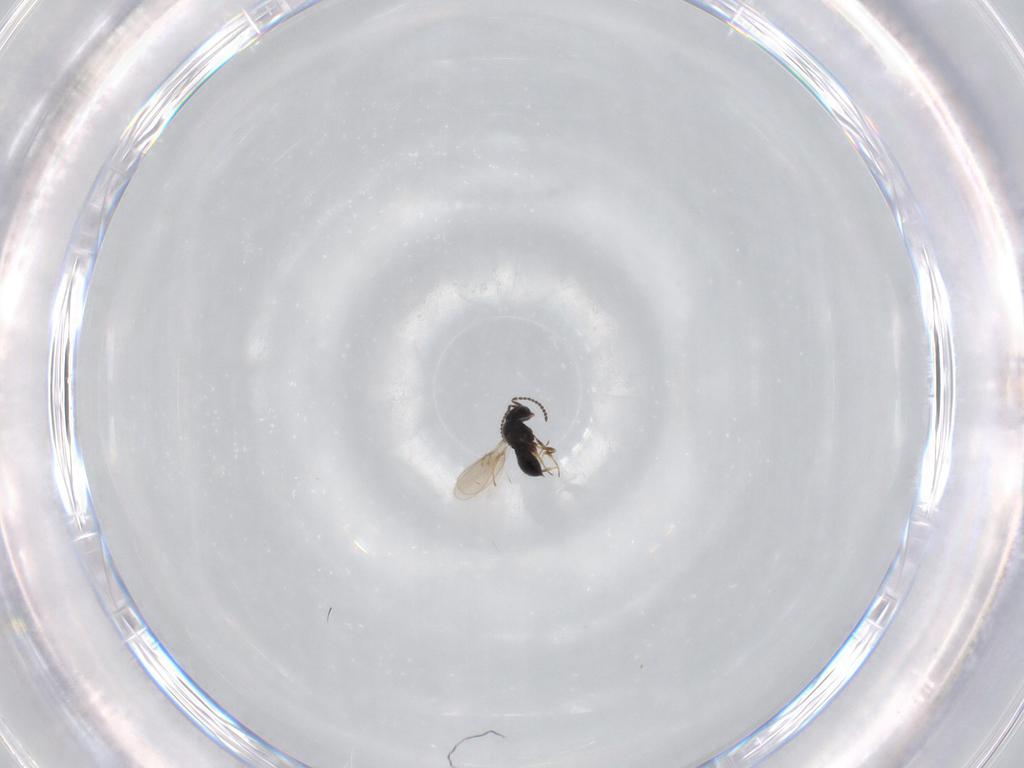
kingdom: Animalia
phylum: Arthropoda
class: Insecta
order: Hymenoptera
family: Scelionidae
